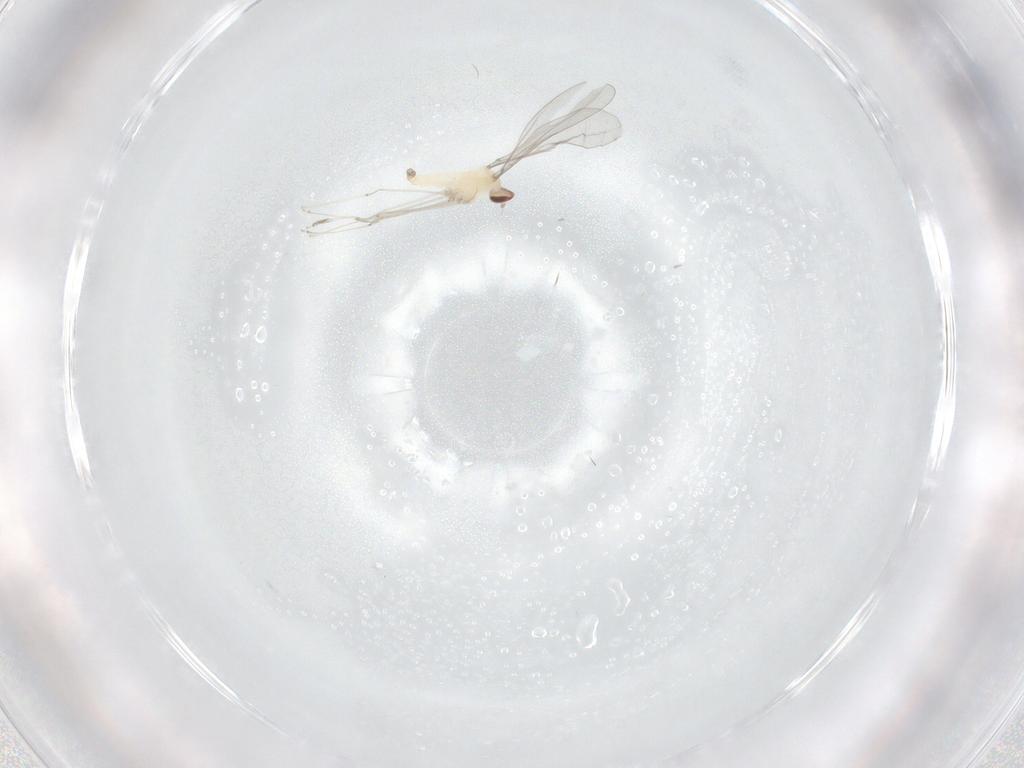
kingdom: Animalia
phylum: Arthropoda
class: Insecta
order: Diptera
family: Cecidomyiidae
